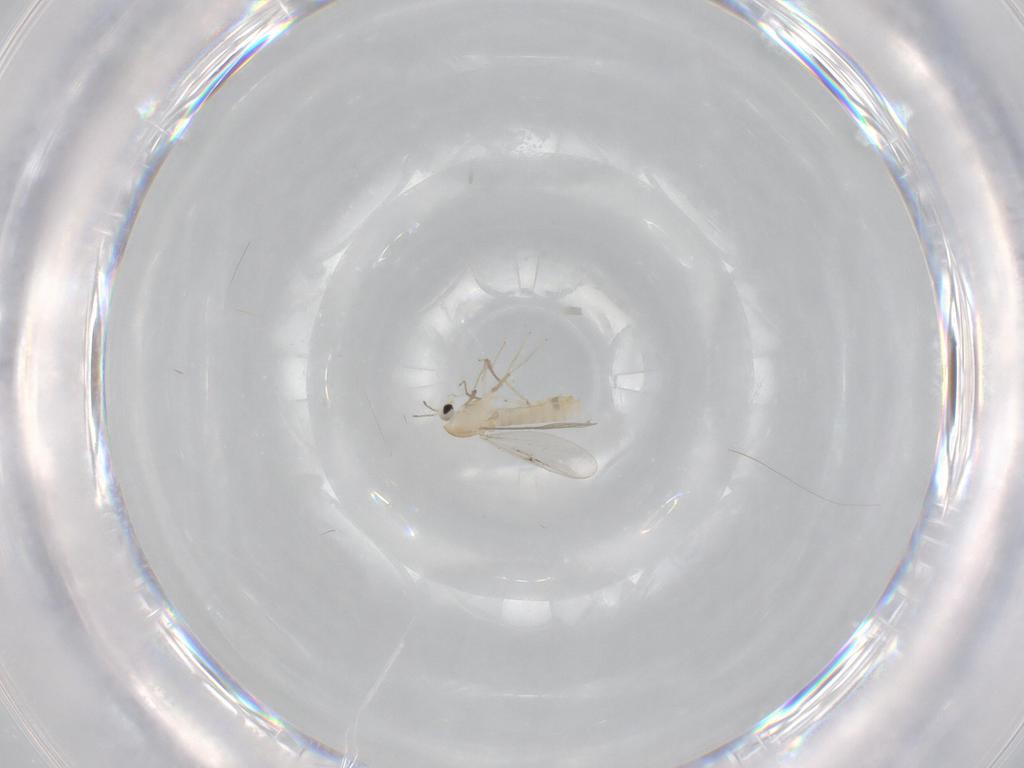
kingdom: Animalia
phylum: Arthropoda
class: Insecta
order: Diptera
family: Chironomidae
